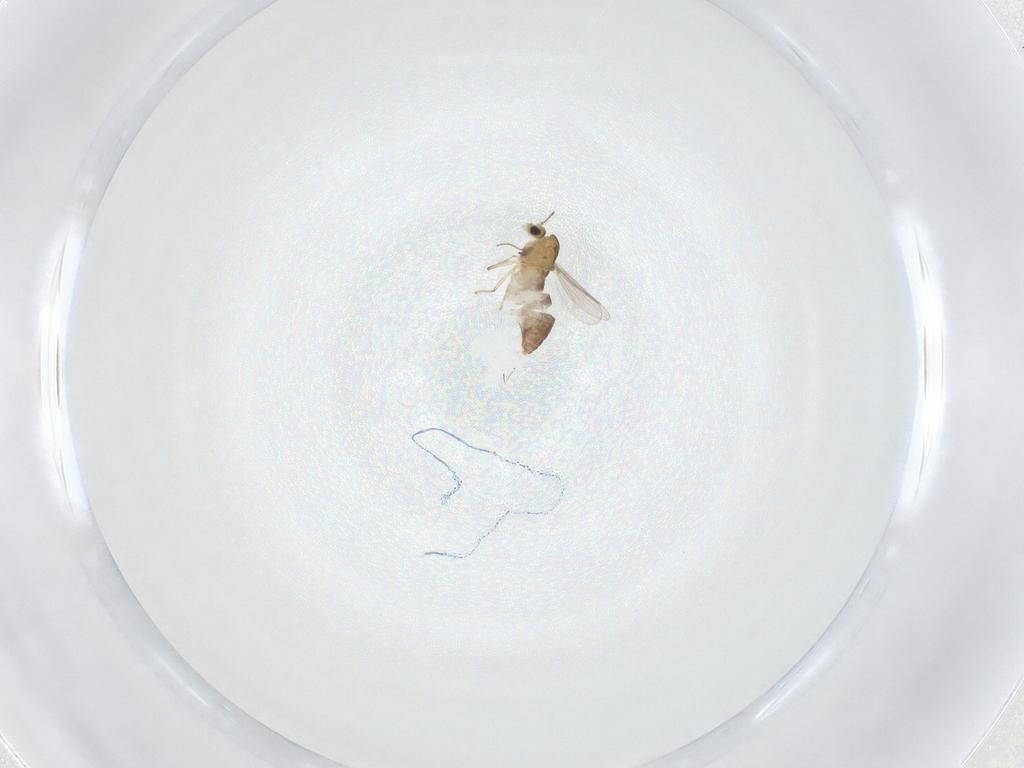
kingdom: Animalia
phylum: Arthropoda
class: Insecta
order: Diptera
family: Chironomidae
